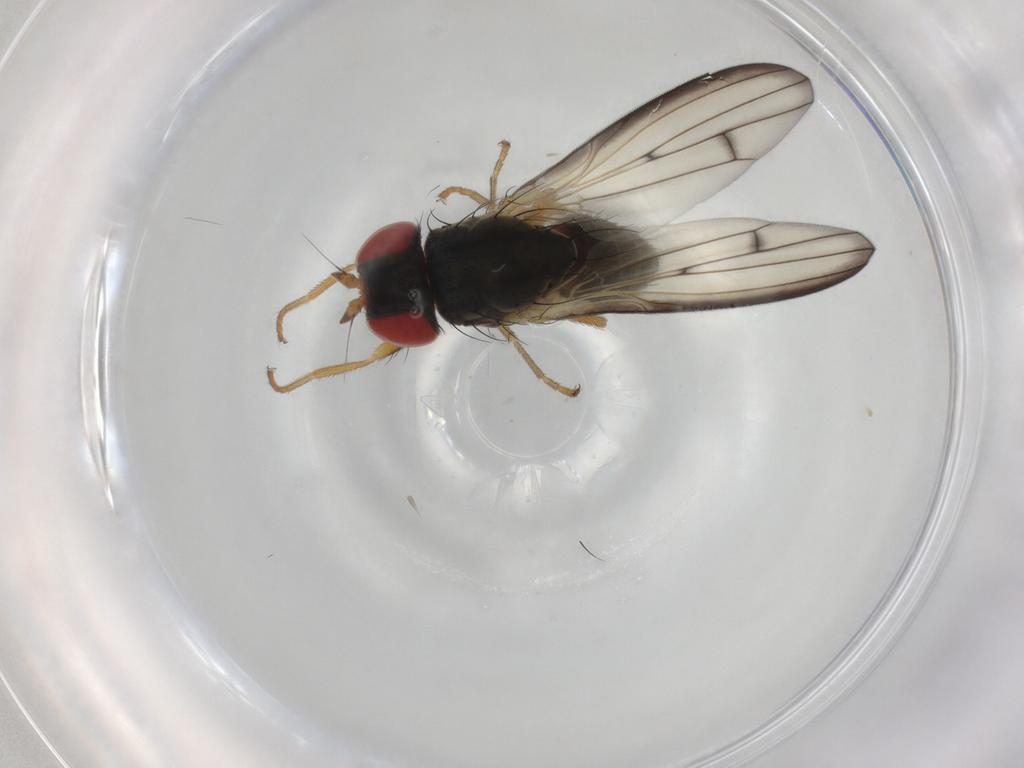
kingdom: Animalia
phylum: Arthropoda
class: Insecta
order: Diptera
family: Chamaemyiidae
